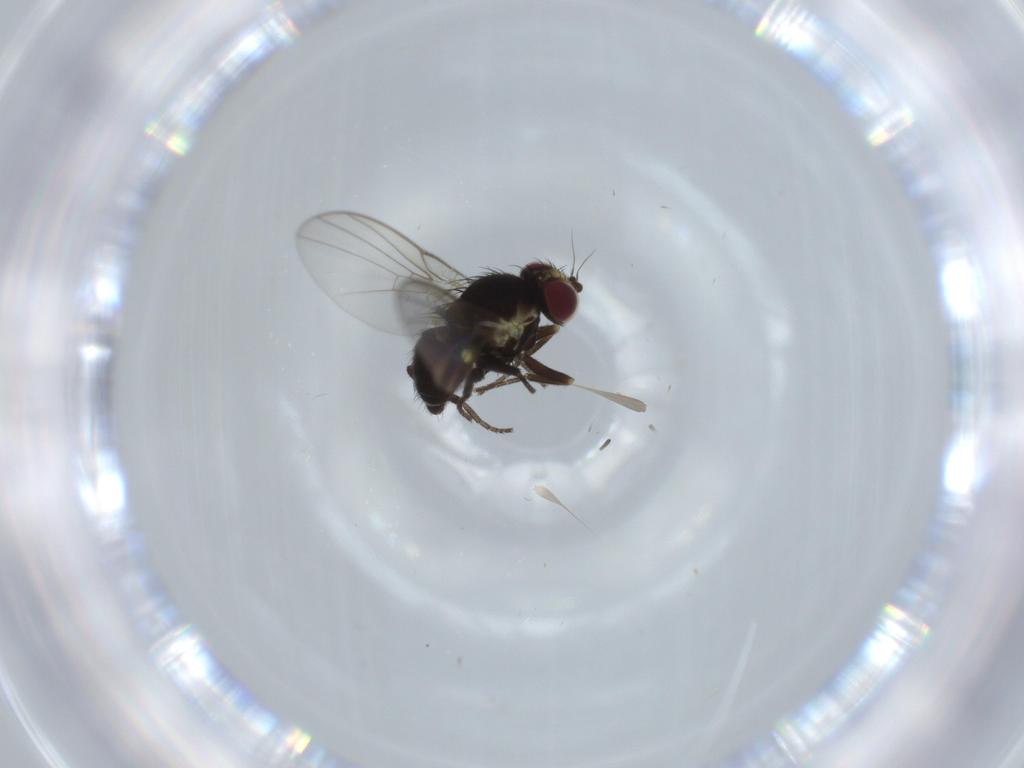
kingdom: Animalia
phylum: Arthropoda
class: Insecta
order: Diptera
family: Agromyzidae
